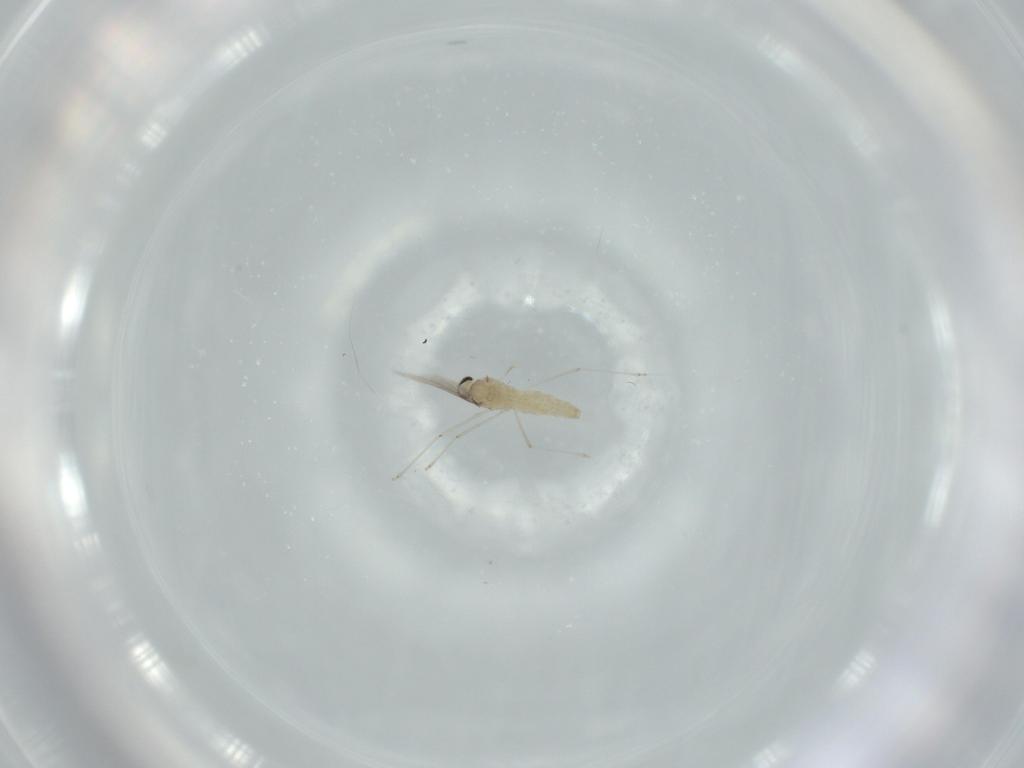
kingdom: Animalia
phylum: Arthropoda
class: Insecta
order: Diptera
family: Cecidomyiidae
